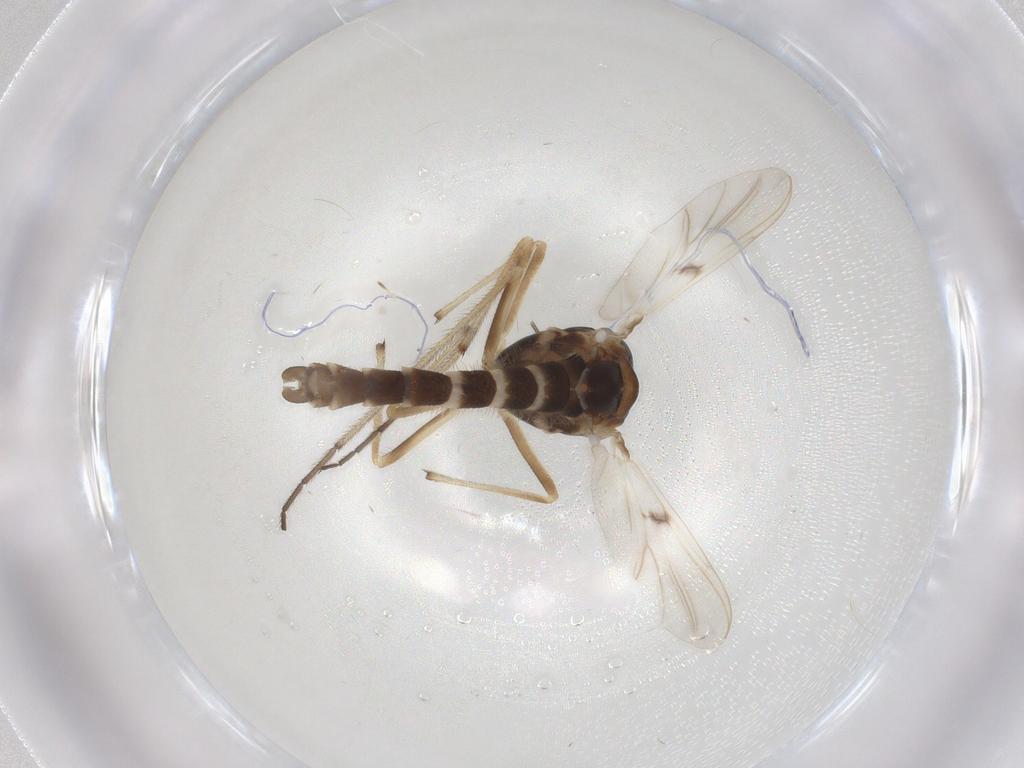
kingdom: Animalia
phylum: Arthropoda
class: Insecta
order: Diptera
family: Chironomidae
